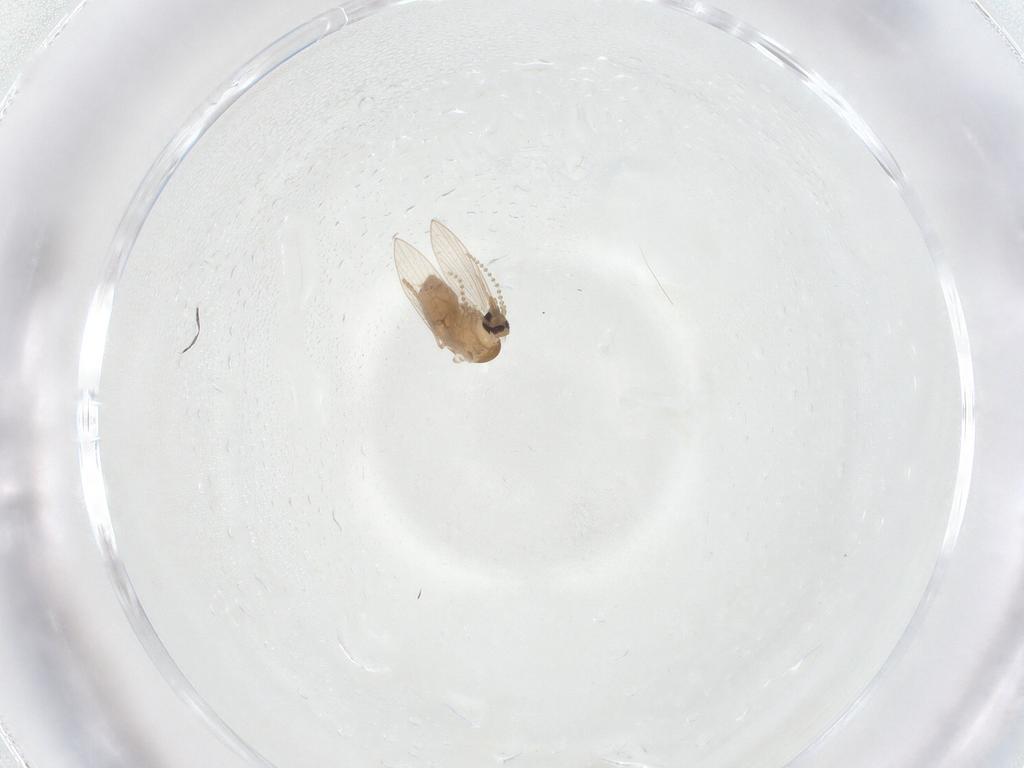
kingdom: Animalia
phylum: Arthropoda
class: Insecta
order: Diptera
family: Psychodidae
